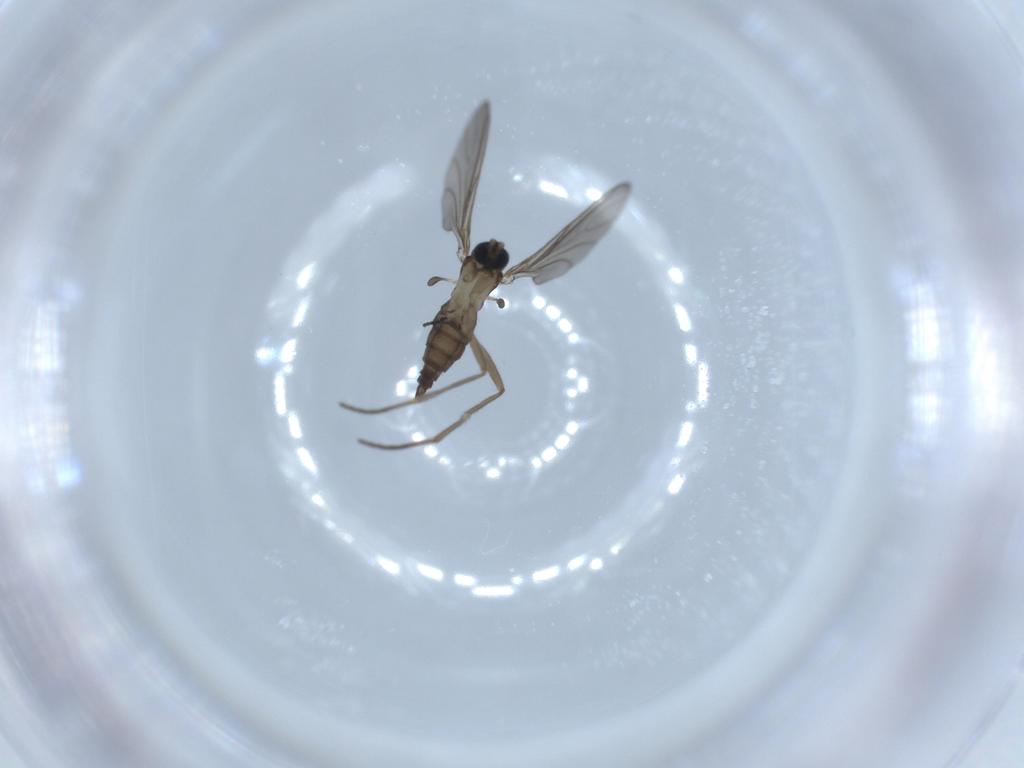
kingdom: Animalia
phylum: Arthropoda
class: Insecta
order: Diptera
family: Sciaridae
